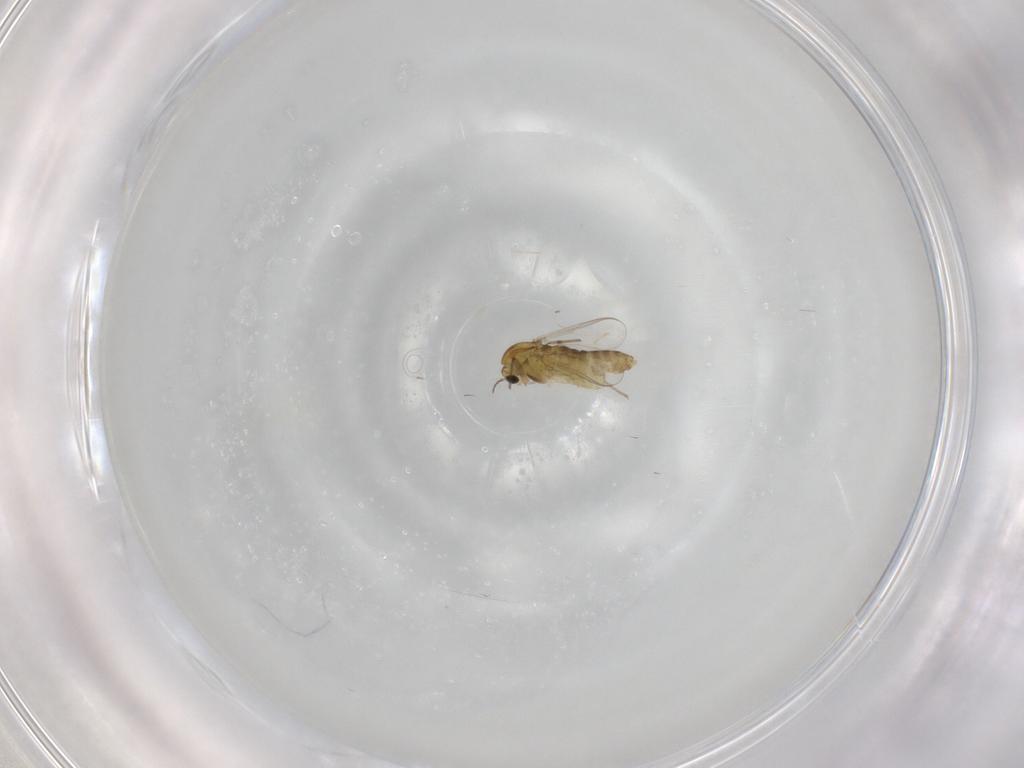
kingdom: Animalia
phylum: Arthropoda
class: Insecta
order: Diptera
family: Chironomidae
